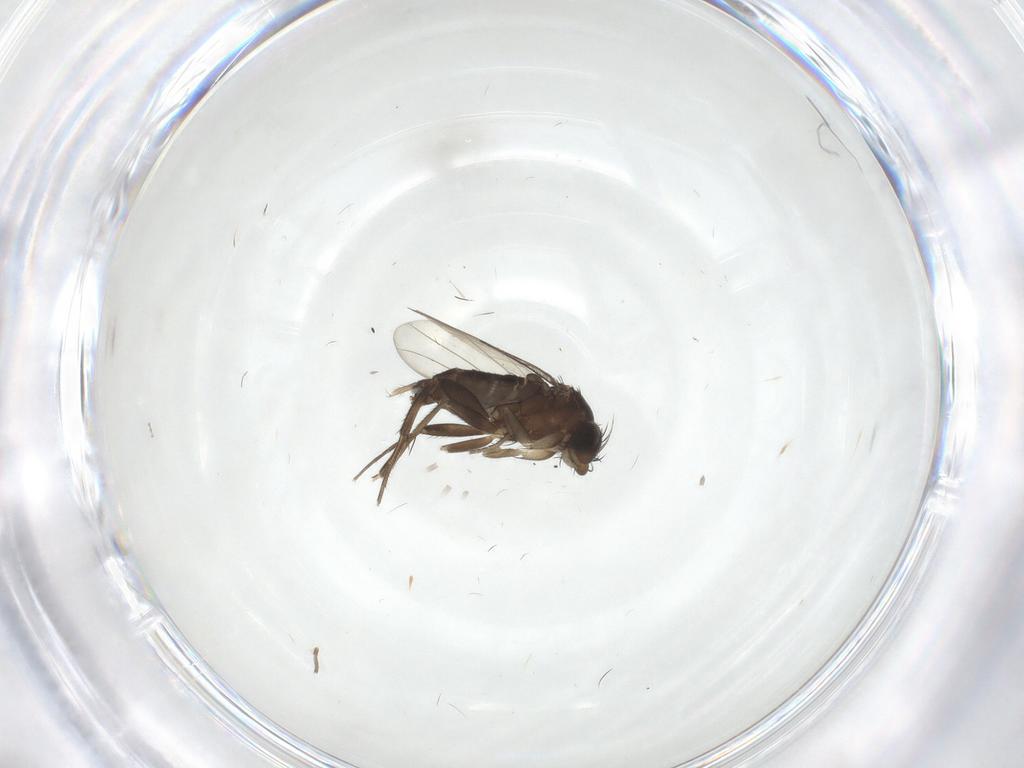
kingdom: Animalia
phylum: Arthropoda
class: Insecta
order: Diptera
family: Phoridae
